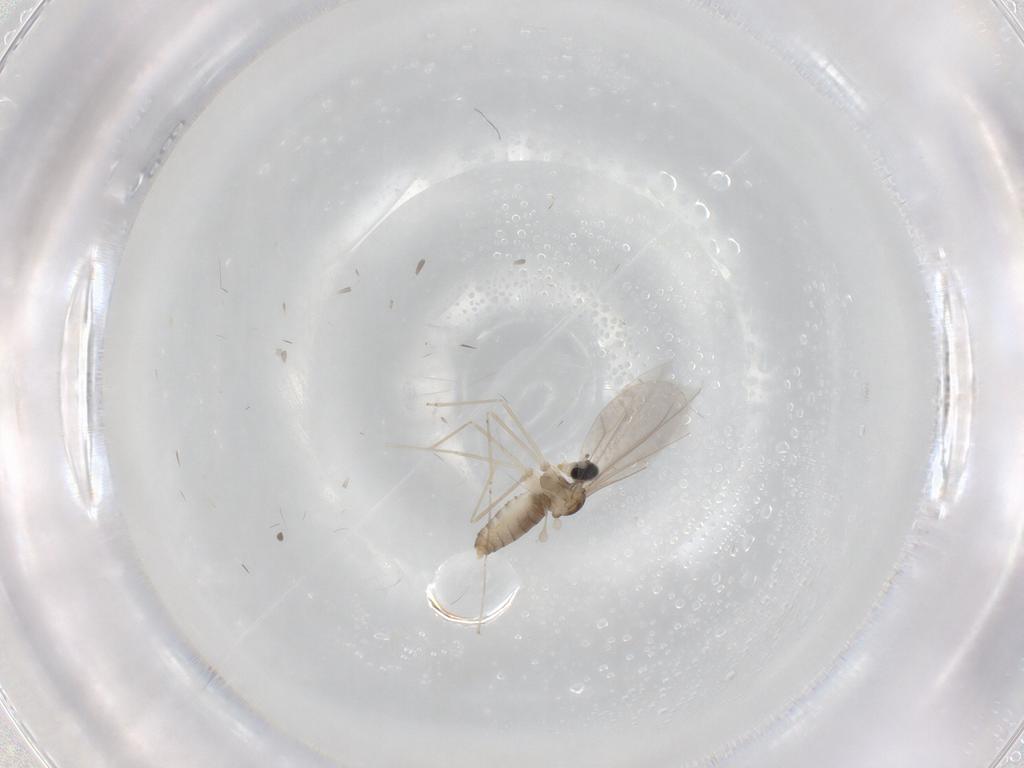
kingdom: Animalia
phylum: Arthropoda
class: Insecta
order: Diptera
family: Cecidomyiidae
